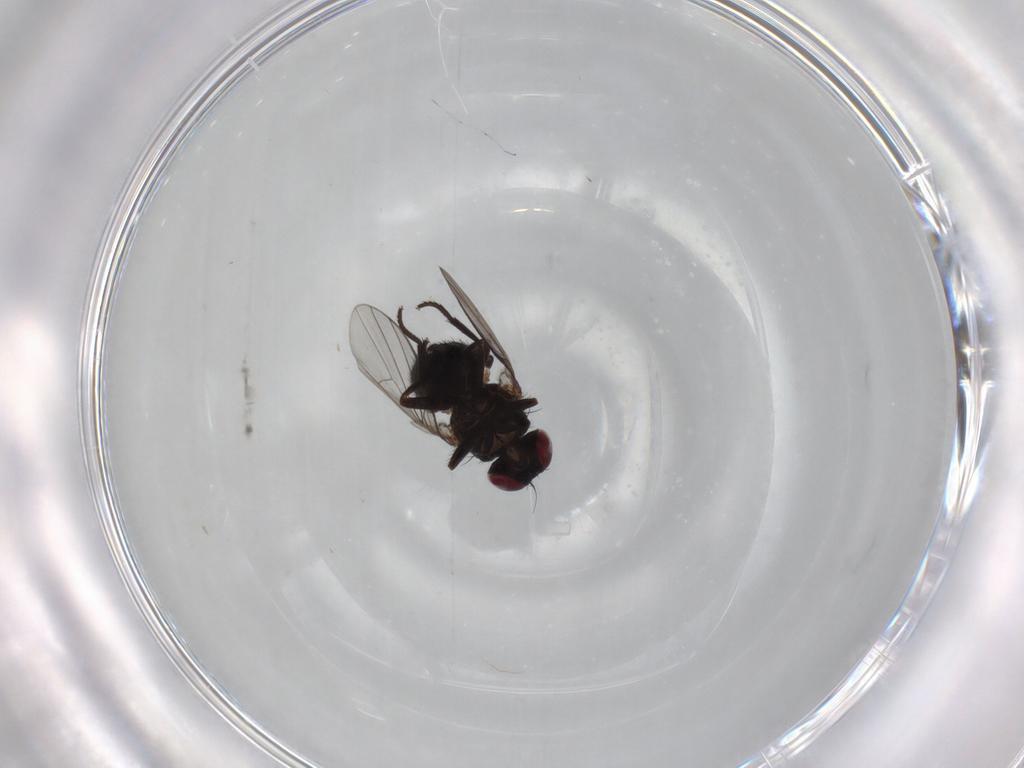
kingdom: Animalia
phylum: Arthropoda
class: Insecta
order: Diptera
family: Agromyzidae
